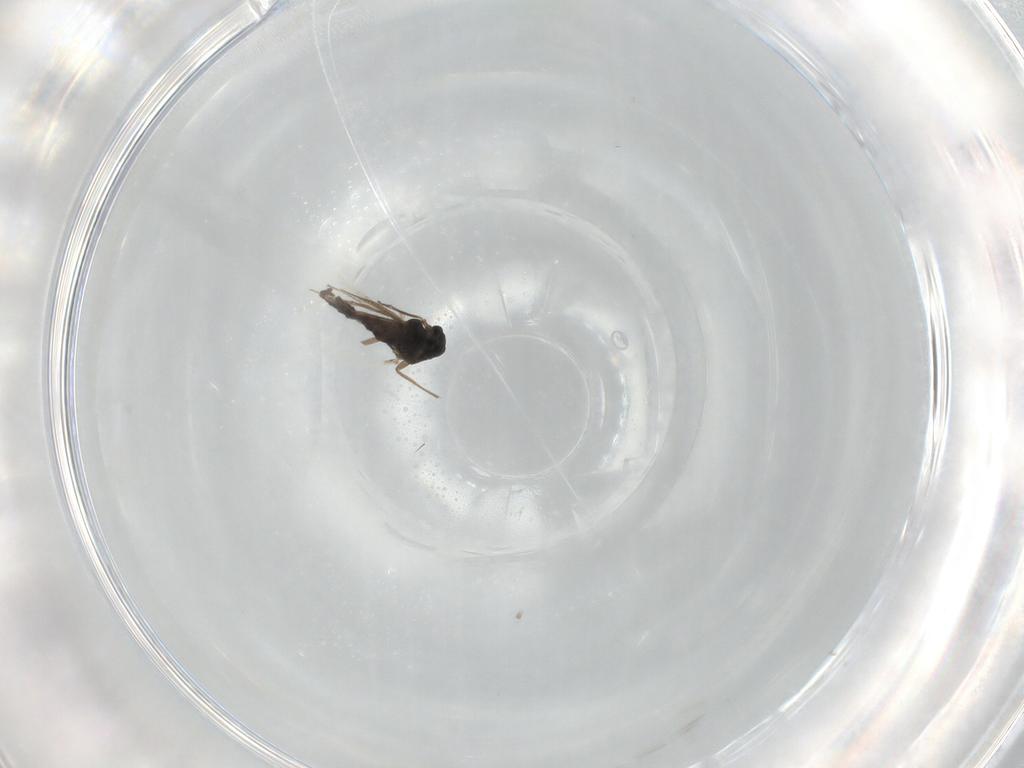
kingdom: Animalia
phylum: Arthropoda
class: Insecta
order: Diptera
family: Chironomidae
